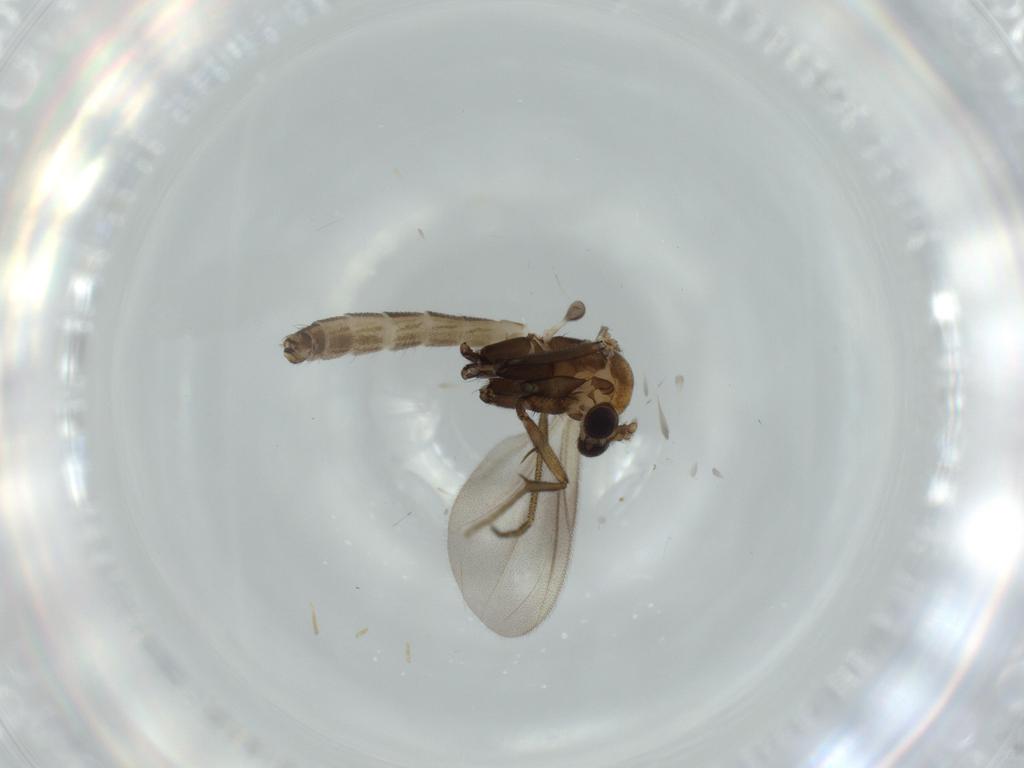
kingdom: Animalia
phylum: Arthropoda
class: Insecta
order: Diptera
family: Mycetophilidae
